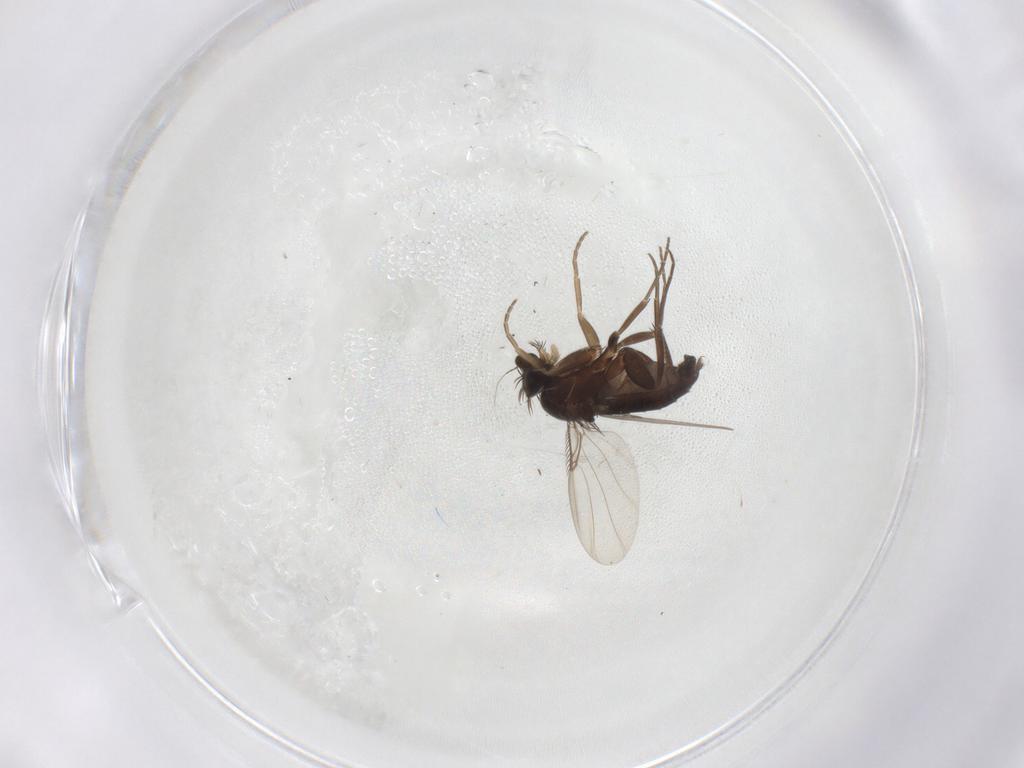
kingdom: Animalia
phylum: Arthropoda
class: Insecta
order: Diptera
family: Phoridae
